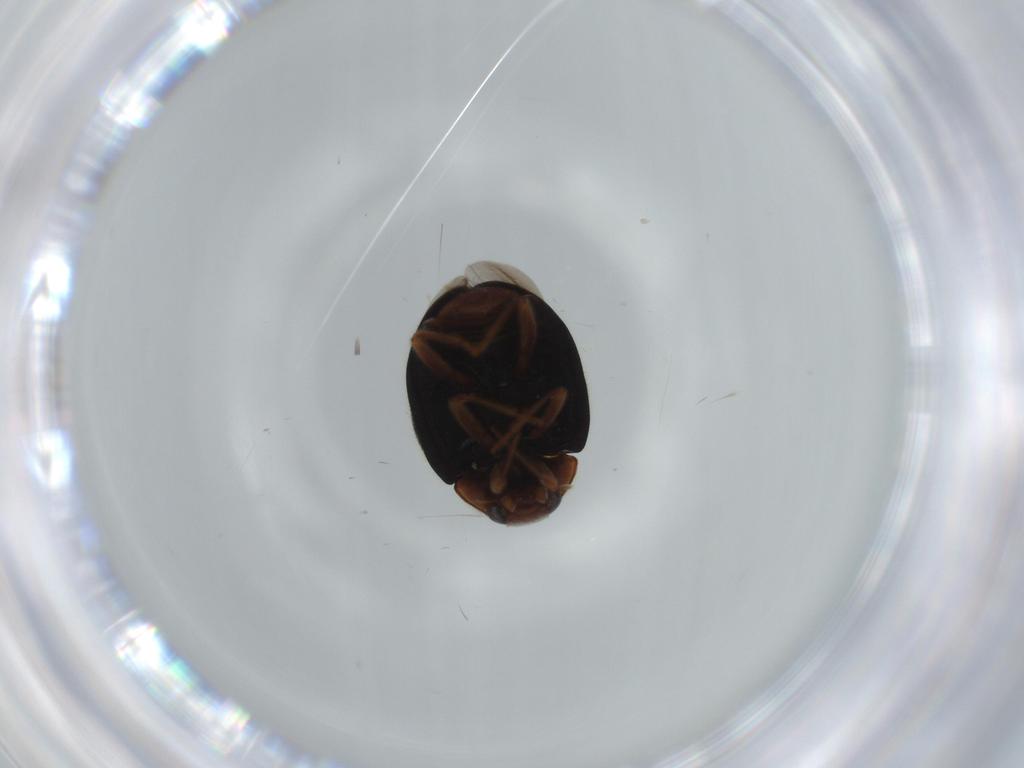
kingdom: Animalia
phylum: Arthropoda
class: Insecta
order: Coleoptera
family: Coccinellidae
